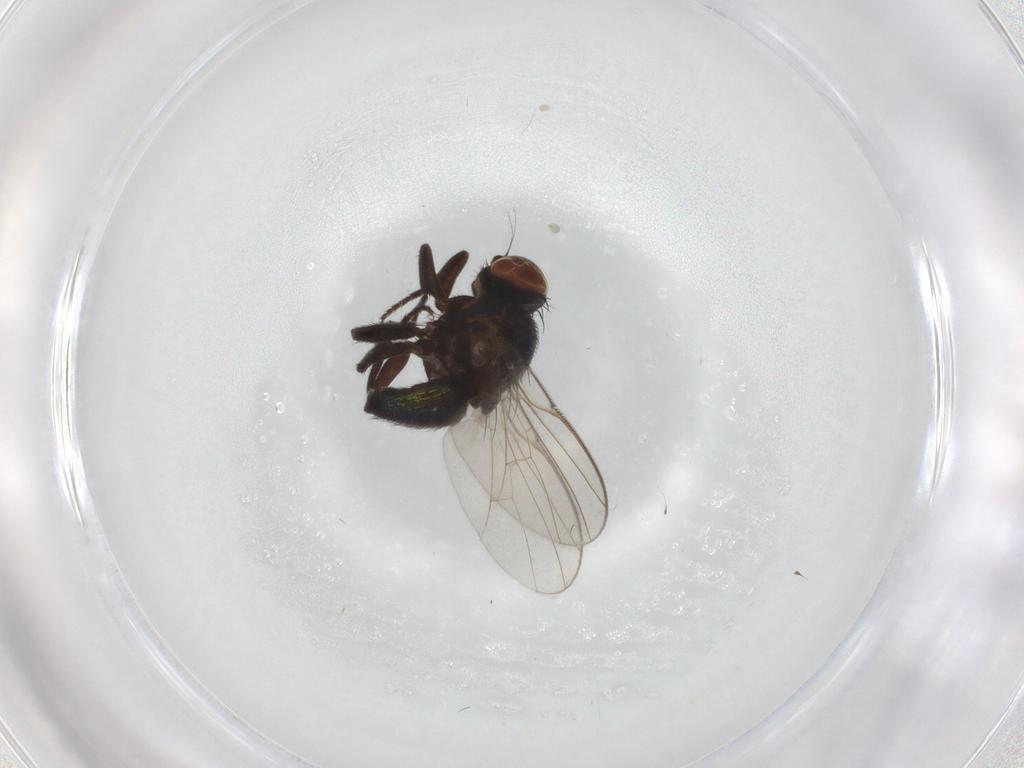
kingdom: Animalia
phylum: Arthropoda
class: Insecta
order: Diptera
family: Agromyzidae
